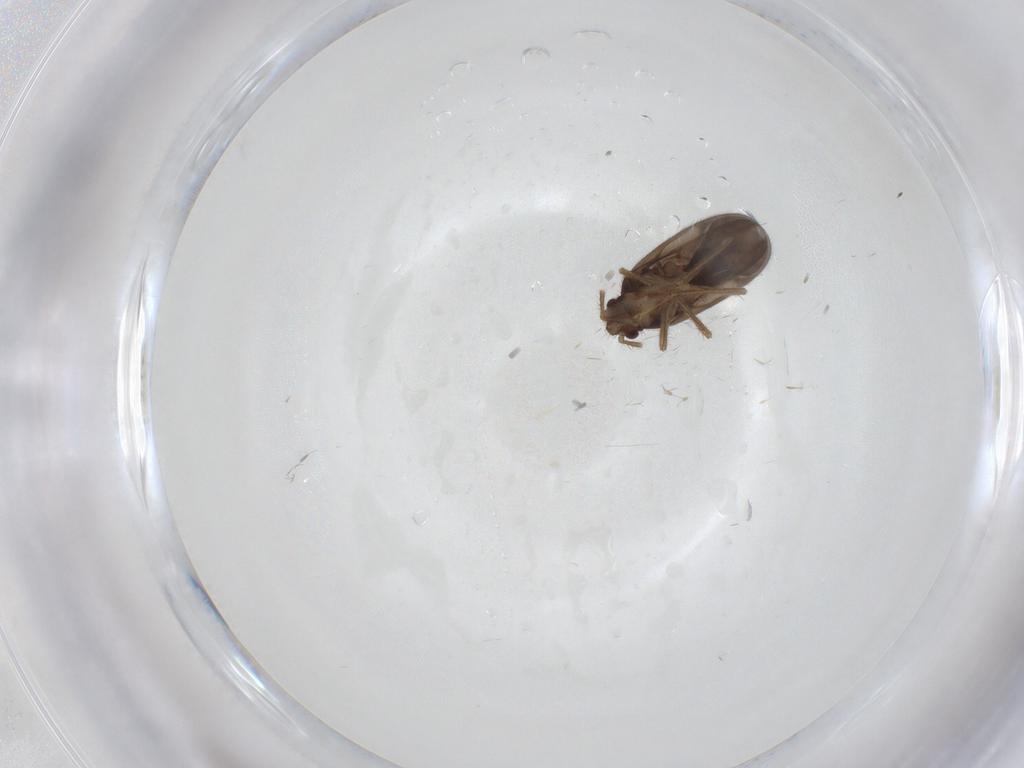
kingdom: Animalia
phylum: Arthropoda
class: Insecta
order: Hemiptera
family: Ceratocombidae
